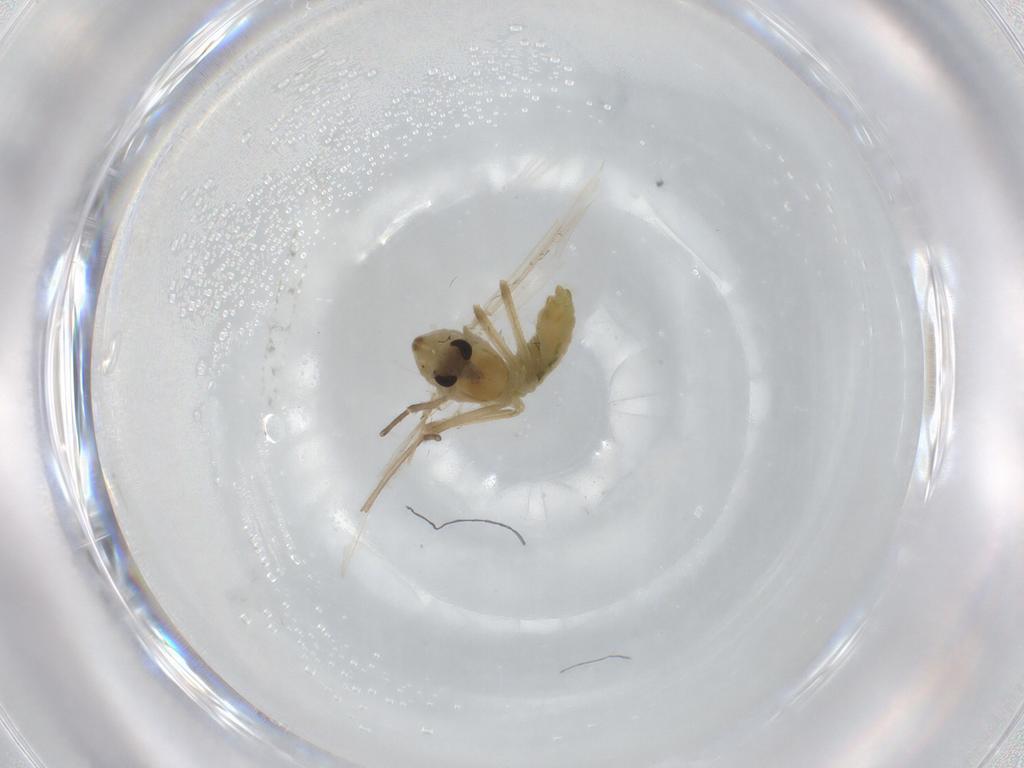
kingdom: Animalia
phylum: Arthropoda
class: Insecta
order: Diptera
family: Chironomidae
